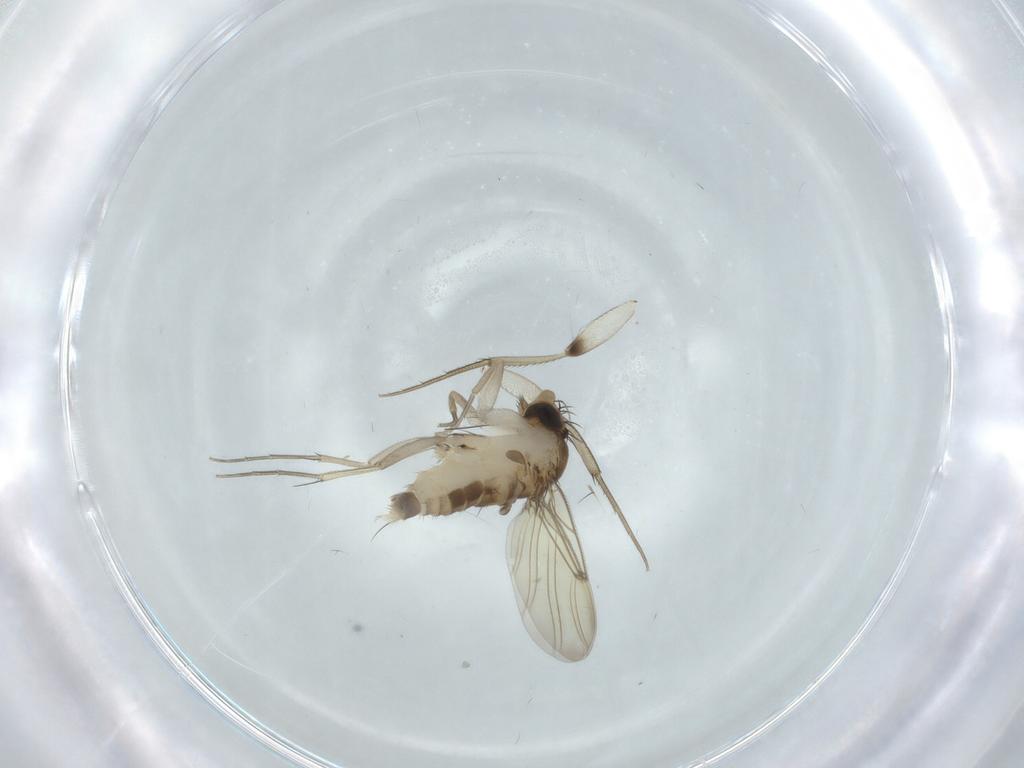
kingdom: Animalia
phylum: Arthropoda
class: Insecta
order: Diptera
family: Phoridae
